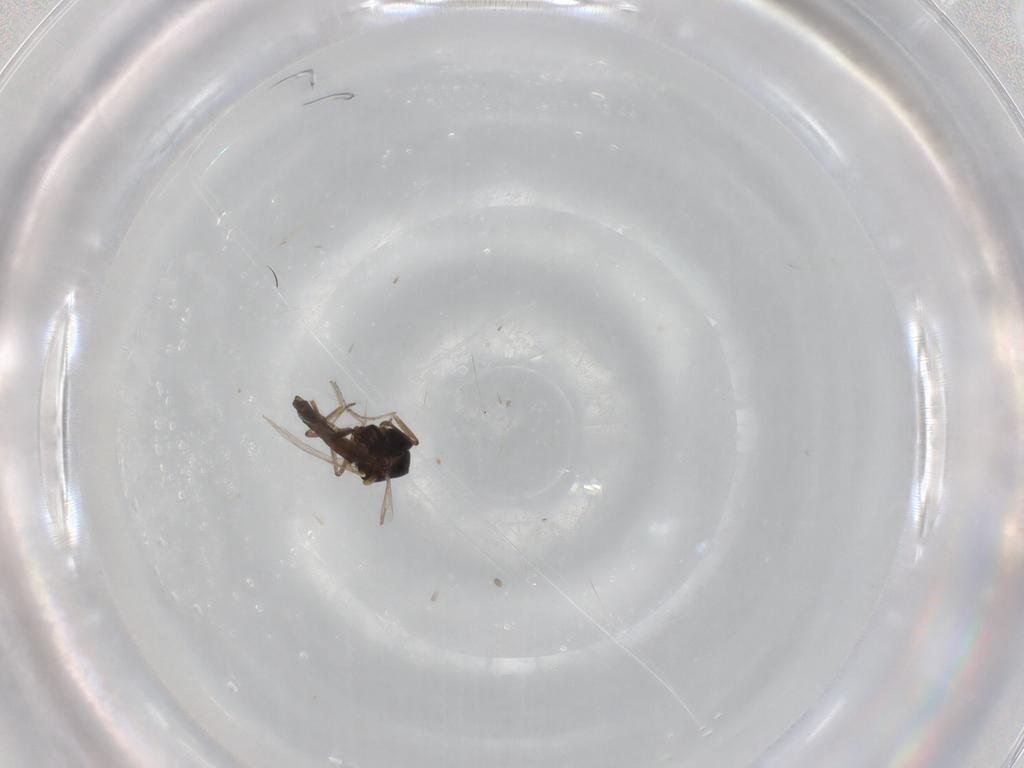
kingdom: Animalia
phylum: Arthropoda
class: Insecta
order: Diptera
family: Ceratopogonidae
